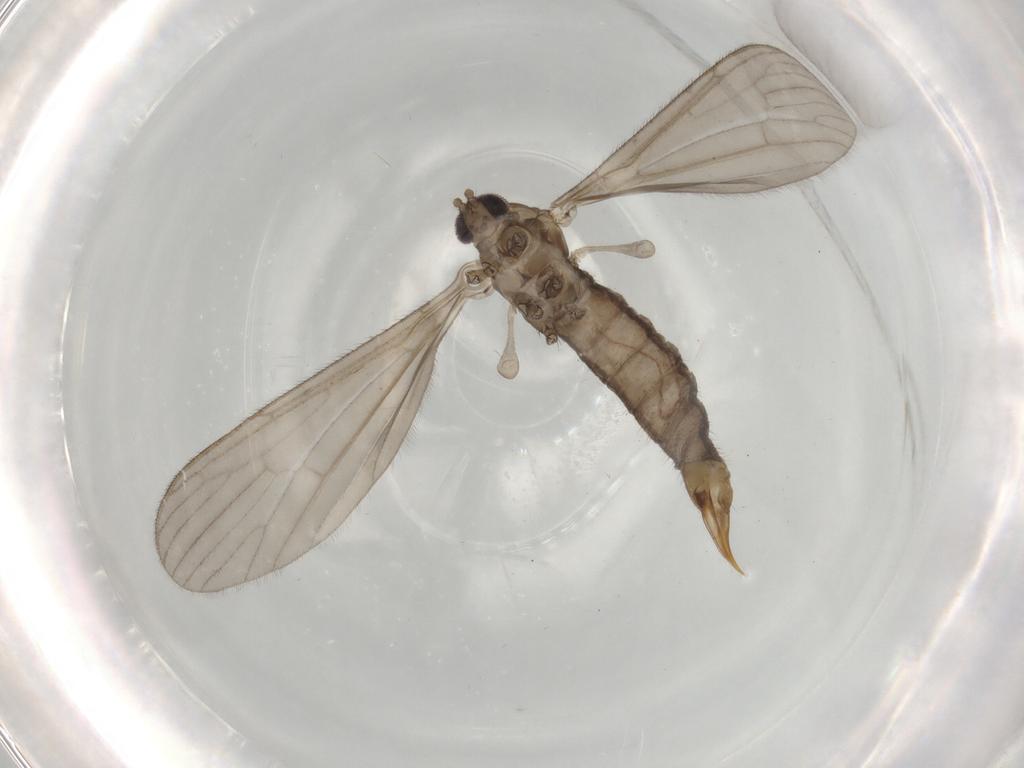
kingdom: Animalia
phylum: Arthropoda
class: Insecta
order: Diptera
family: Limoniidae
